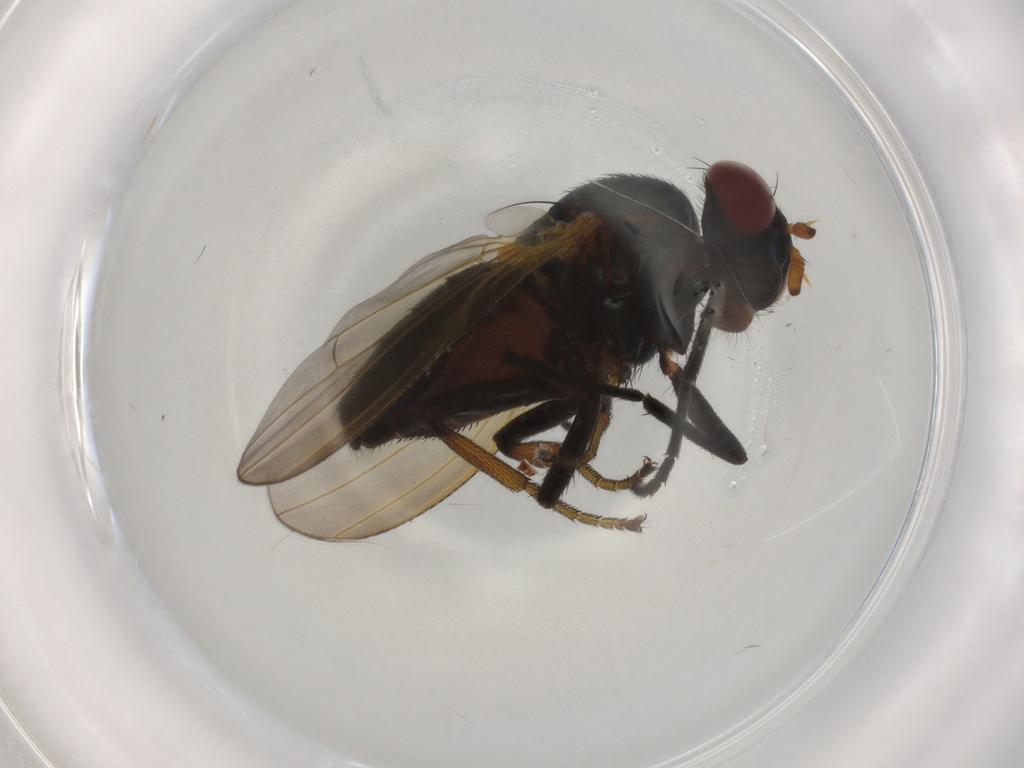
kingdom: Animalia
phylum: Arthropoda
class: Insecta
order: Diptera
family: Lauxaniidae
